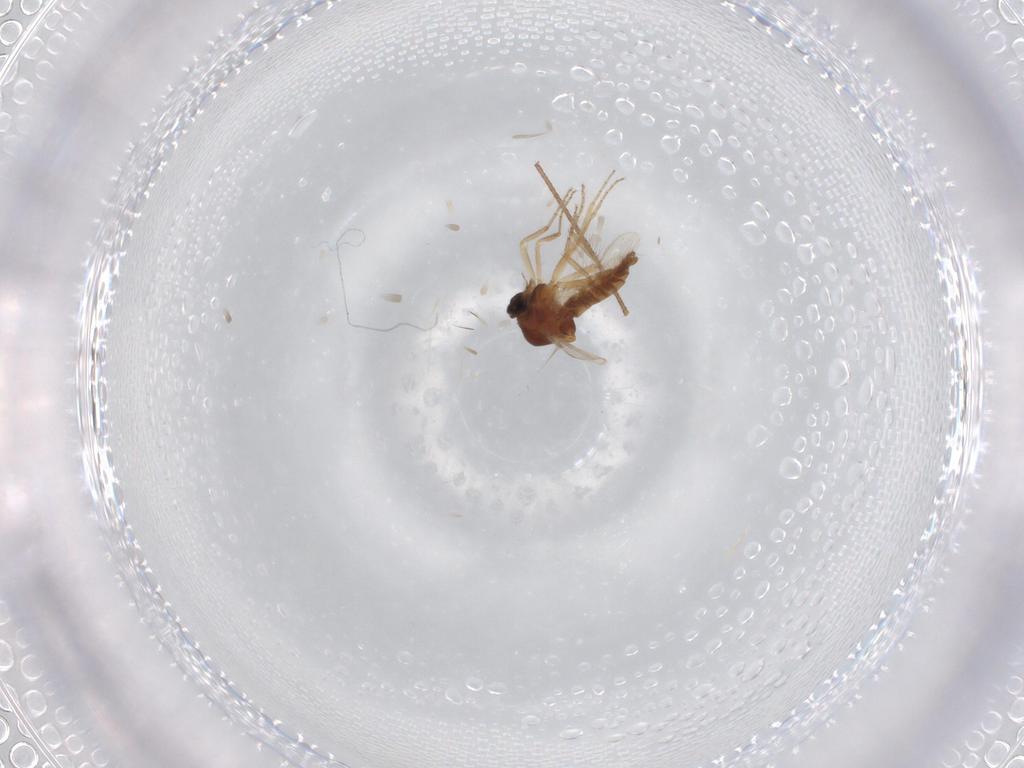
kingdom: Animalia
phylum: Arthropoda
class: Insecta
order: Diptera
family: Ceratopogonidae
